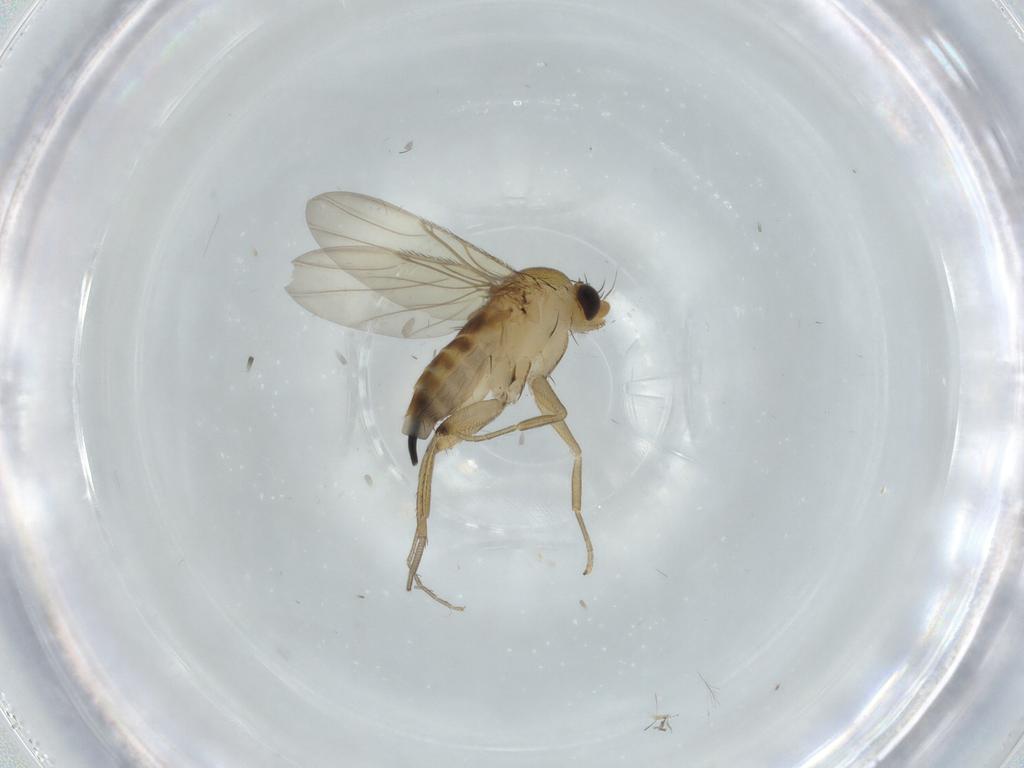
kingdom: Animalia
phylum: Arthropoda
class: Insecta
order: Diptera
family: Phoridae
